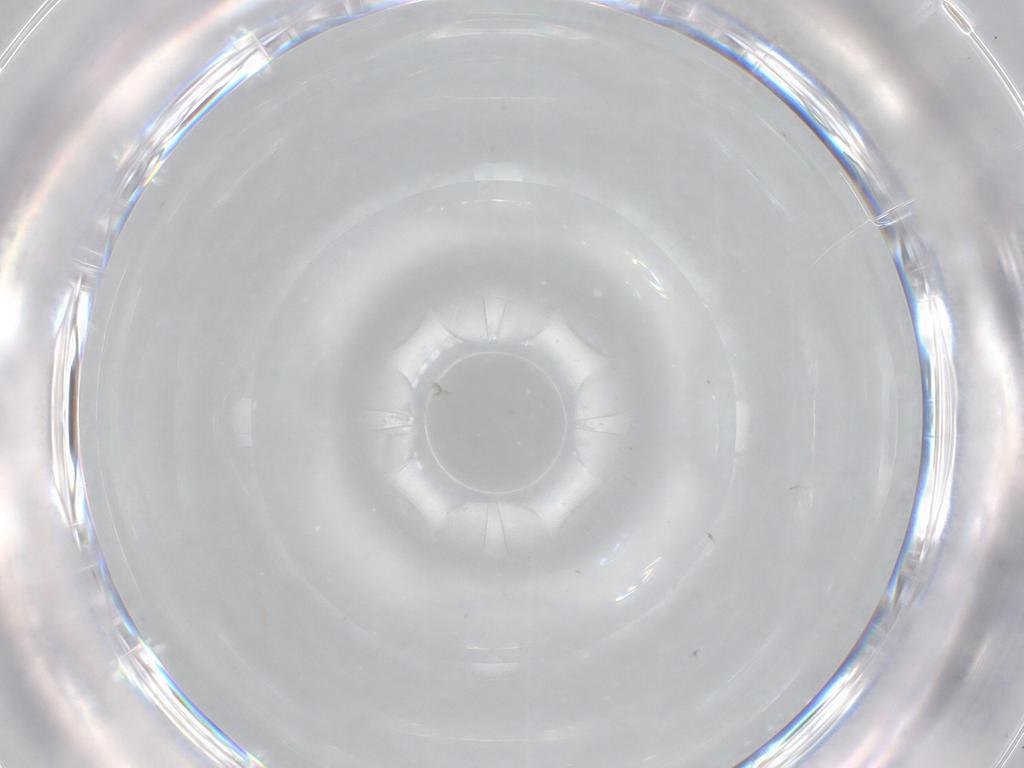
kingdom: Animalia
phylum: Arthropoda
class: Insecta
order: Diptera
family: Cecidomyiidae
